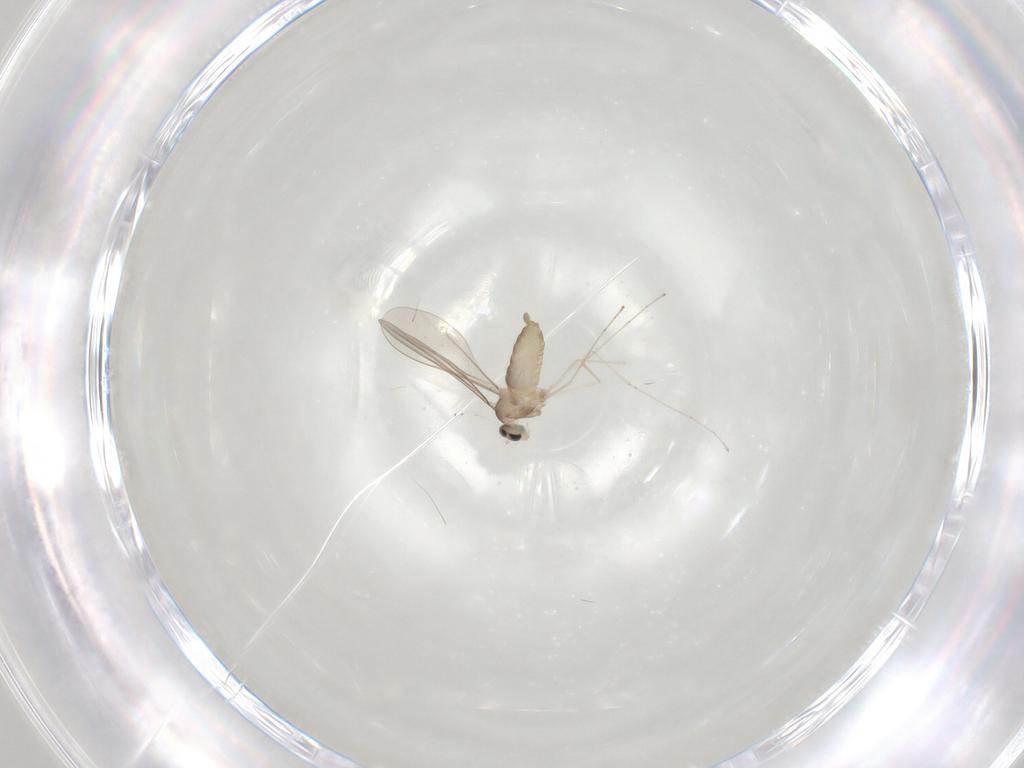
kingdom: Animalia
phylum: Arthropoda
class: Insecta
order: Diptera
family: Cecidomyiidae
